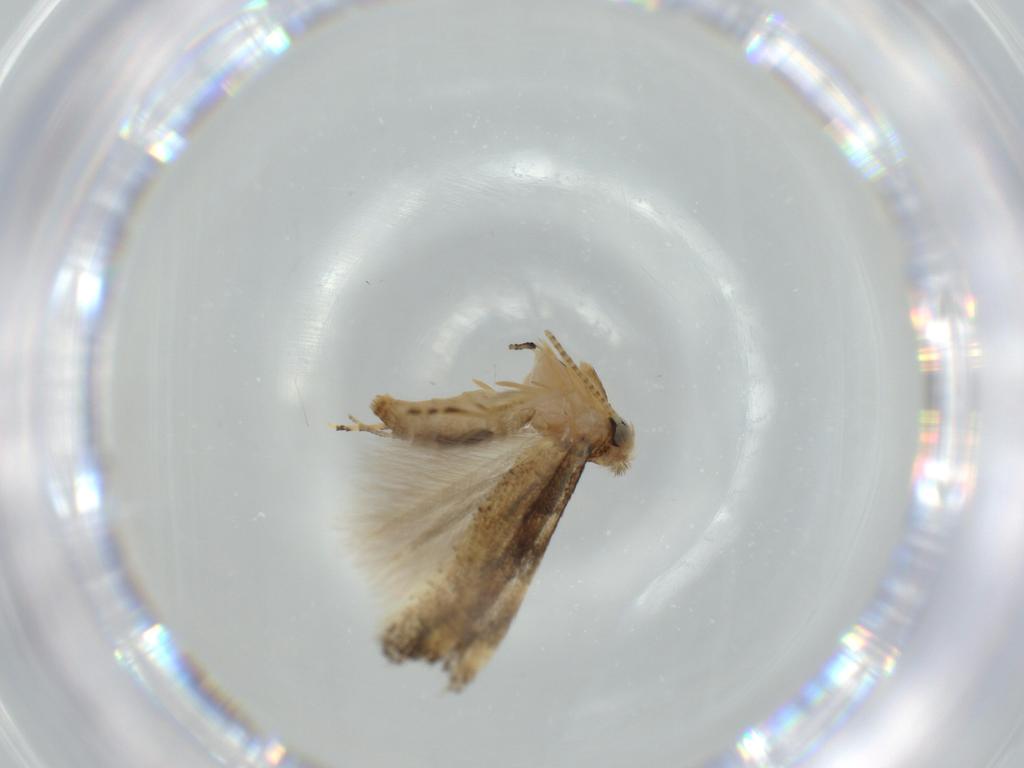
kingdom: Animalia
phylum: Arthropoda
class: Insecta
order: Lepidoptera
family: Bucculatricidae
